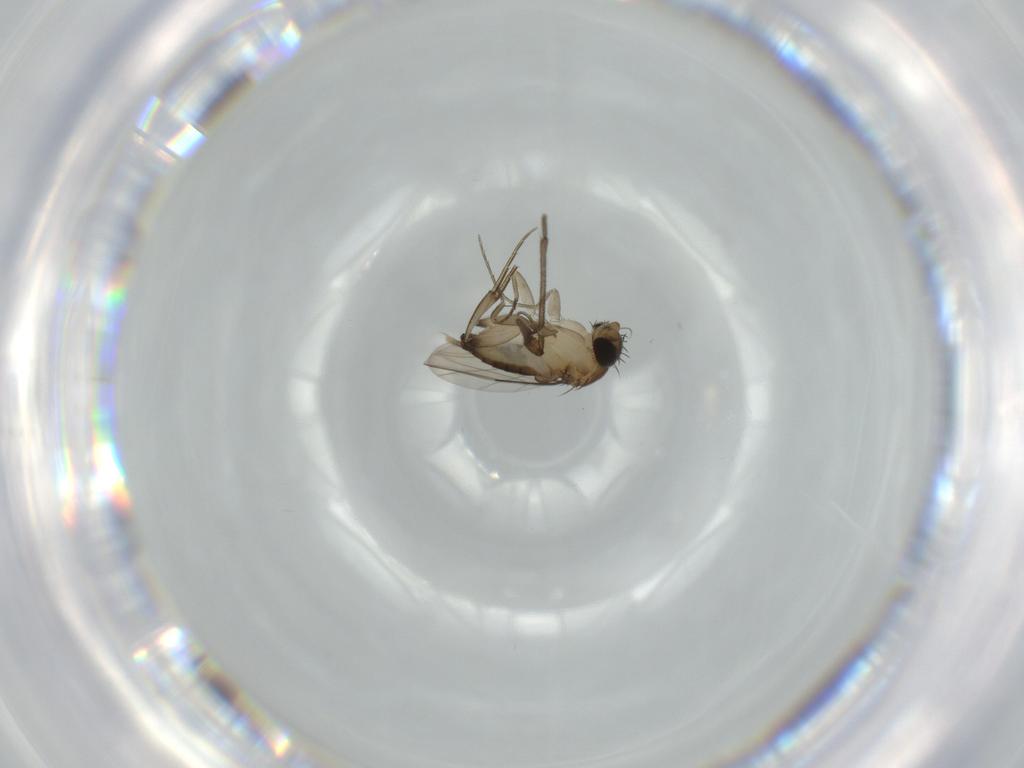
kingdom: Animalia
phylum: Arthropoda
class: Insecta
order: Diptera
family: Phoridae
